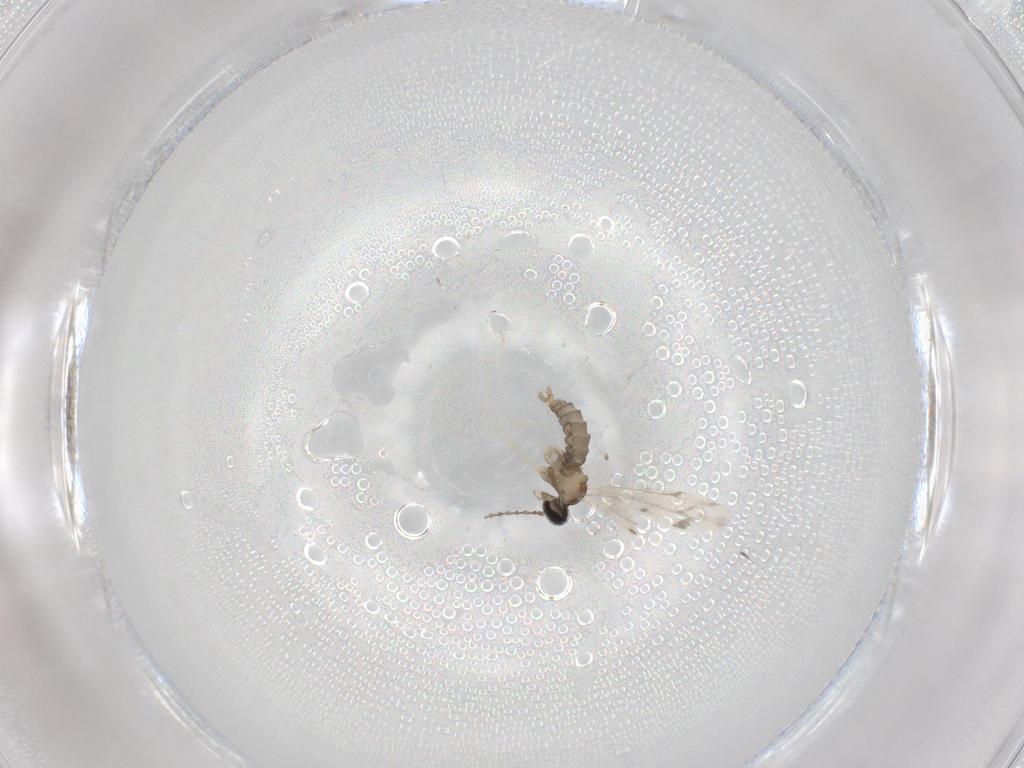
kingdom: Animalia
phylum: Arthropoda
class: Insecta
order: Diptera
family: Cecidomyiidae
